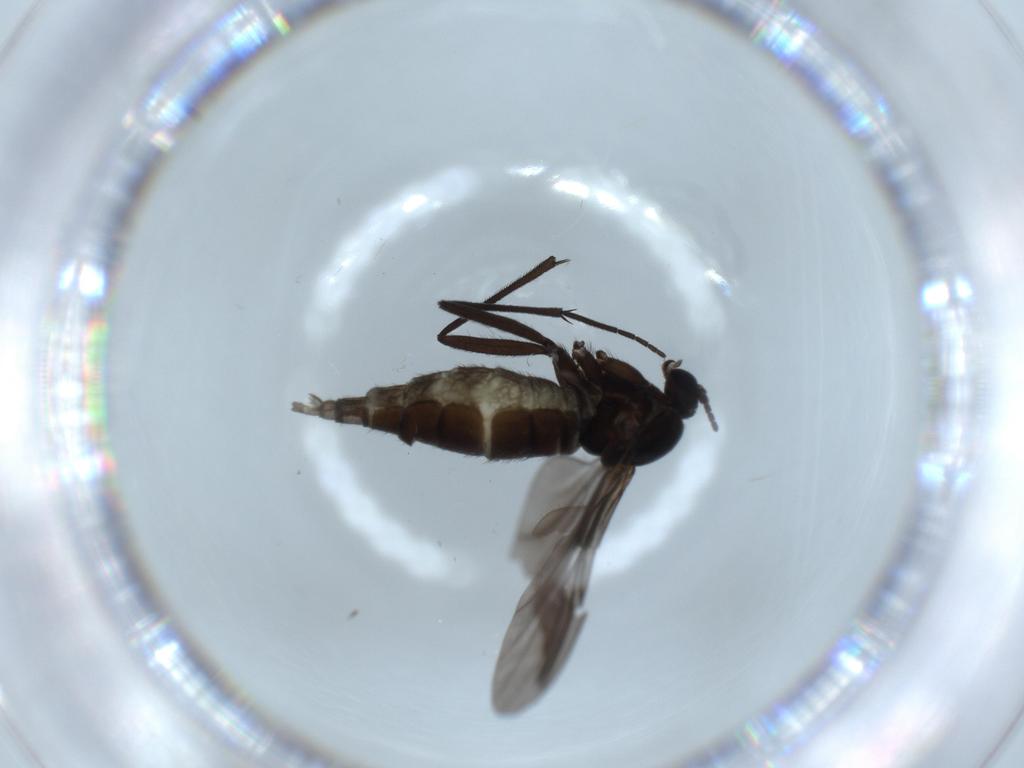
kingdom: Animalia
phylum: Arthropoda
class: Insecta
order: Diptera
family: Sciaridae
